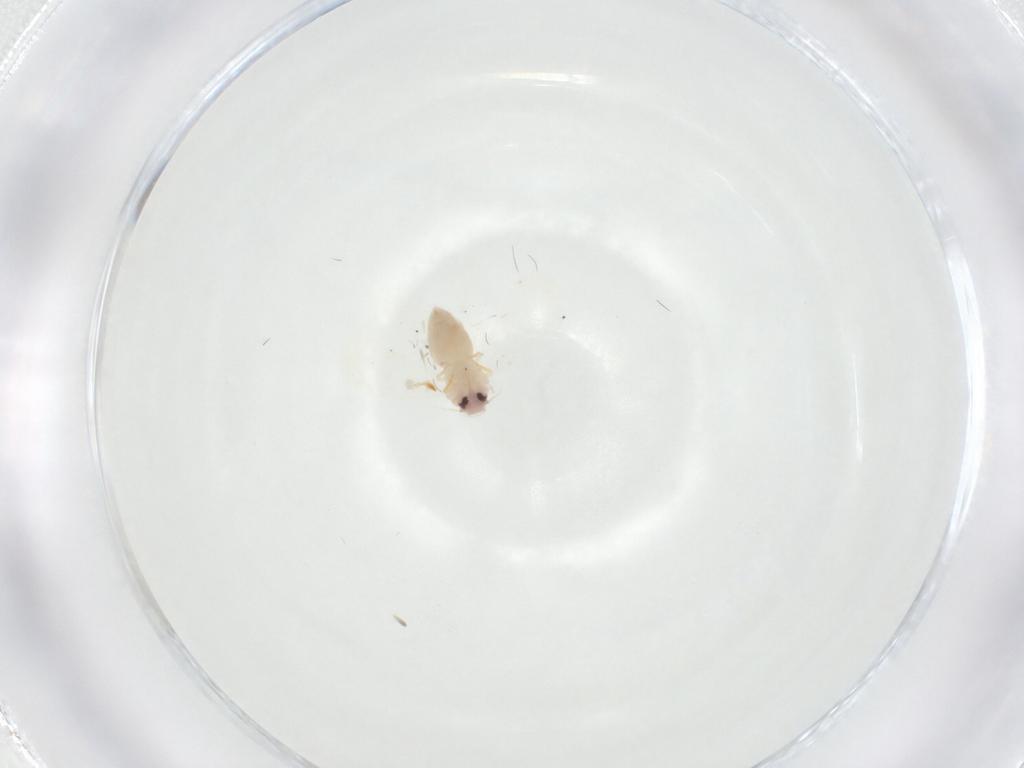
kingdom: Animalia
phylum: Arthropoda
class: Insecta
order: Hemiptera
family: Aleyrodidae
